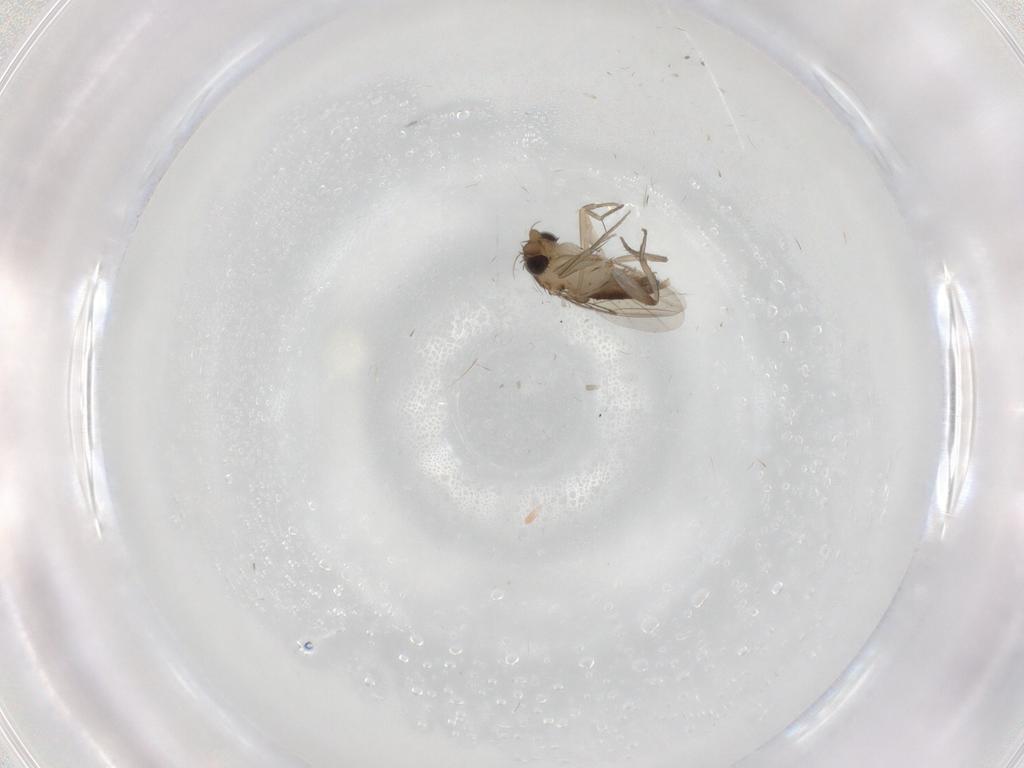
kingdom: Animalia
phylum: Arthropoda
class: Insecta
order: Diptera
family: Phoridae
